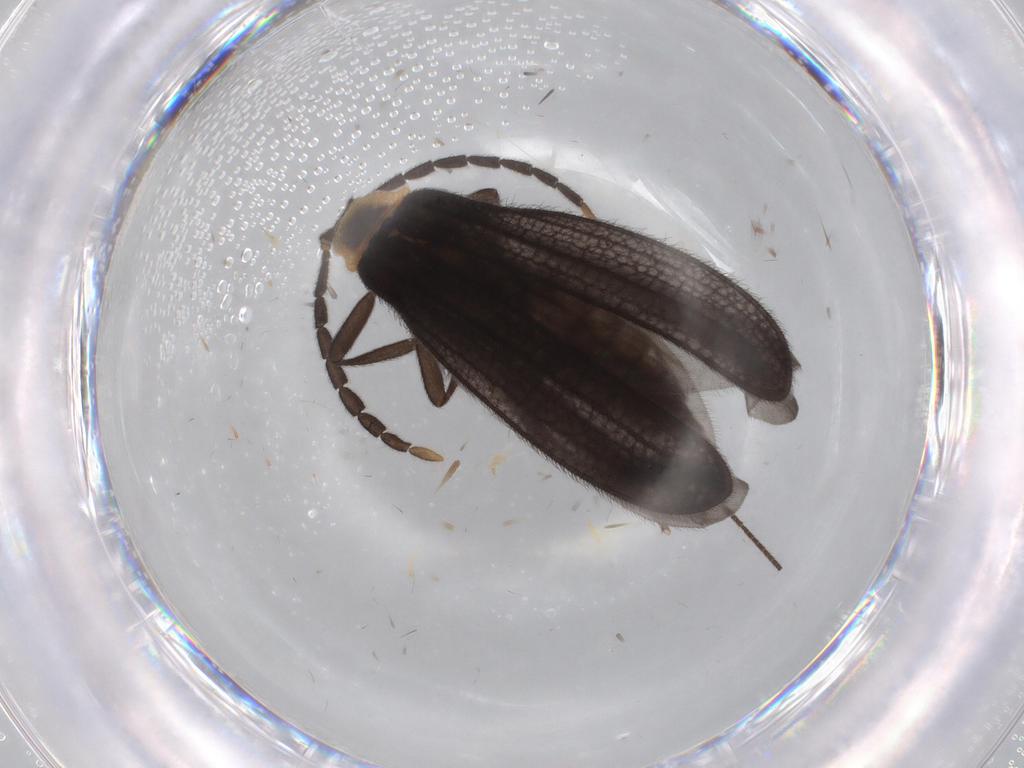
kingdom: Animalia
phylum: Arthropoda
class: Insecta
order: Coleoptera
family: Lycidae
